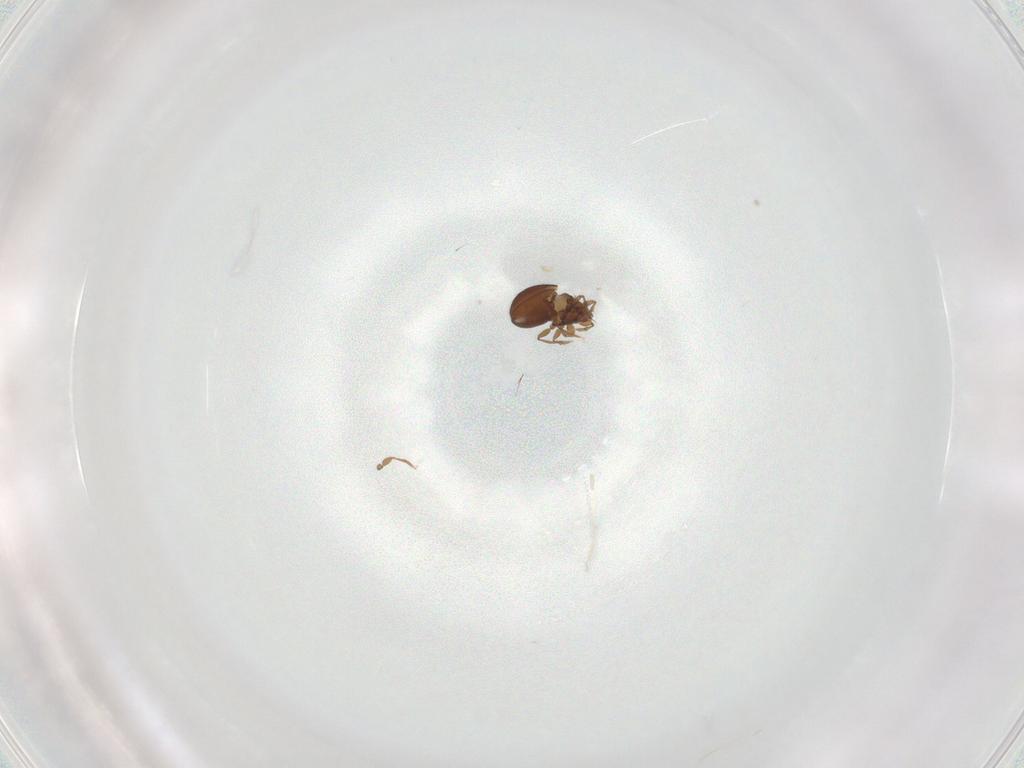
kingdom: Animalia
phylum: Arthropoda
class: Arachnida
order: Sarcoptiformes
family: Oribatulidae
